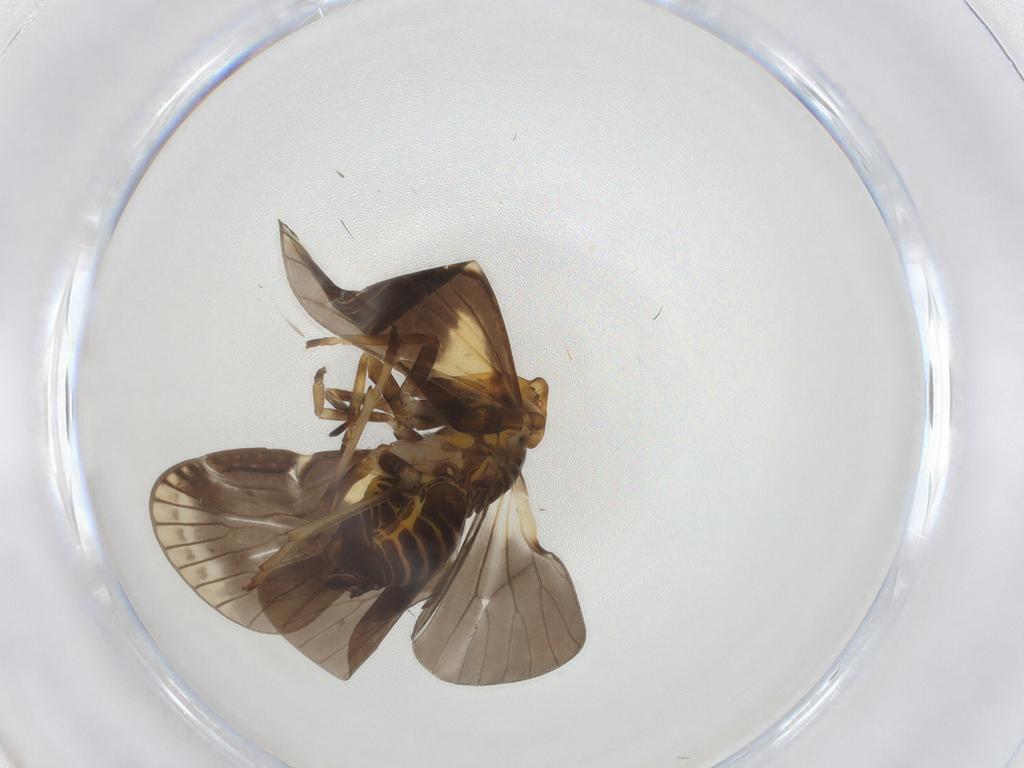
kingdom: Animalia
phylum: Arthropoda
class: Insecta
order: Hemiptera
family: Cixiidae
